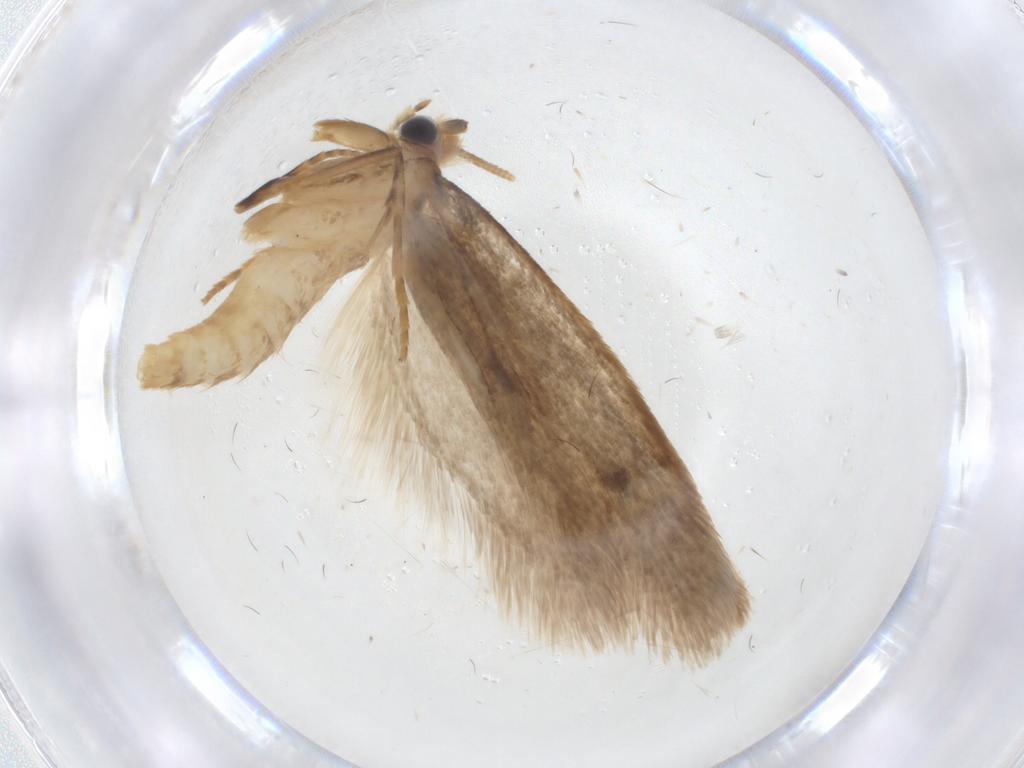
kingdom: Animalia
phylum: Arthropoda
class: Insecta
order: Zygentoma
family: Lepismatidae
